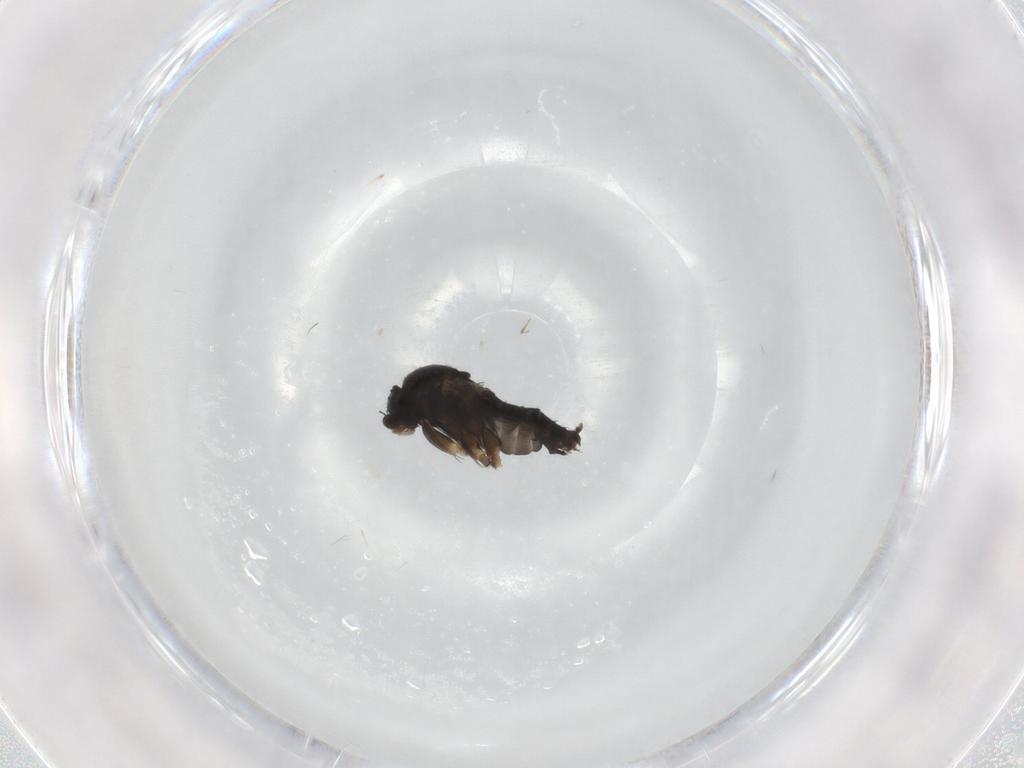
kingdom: Animalia
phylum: Arthropoda
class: Insecta
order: Diptera
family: Phoridae
